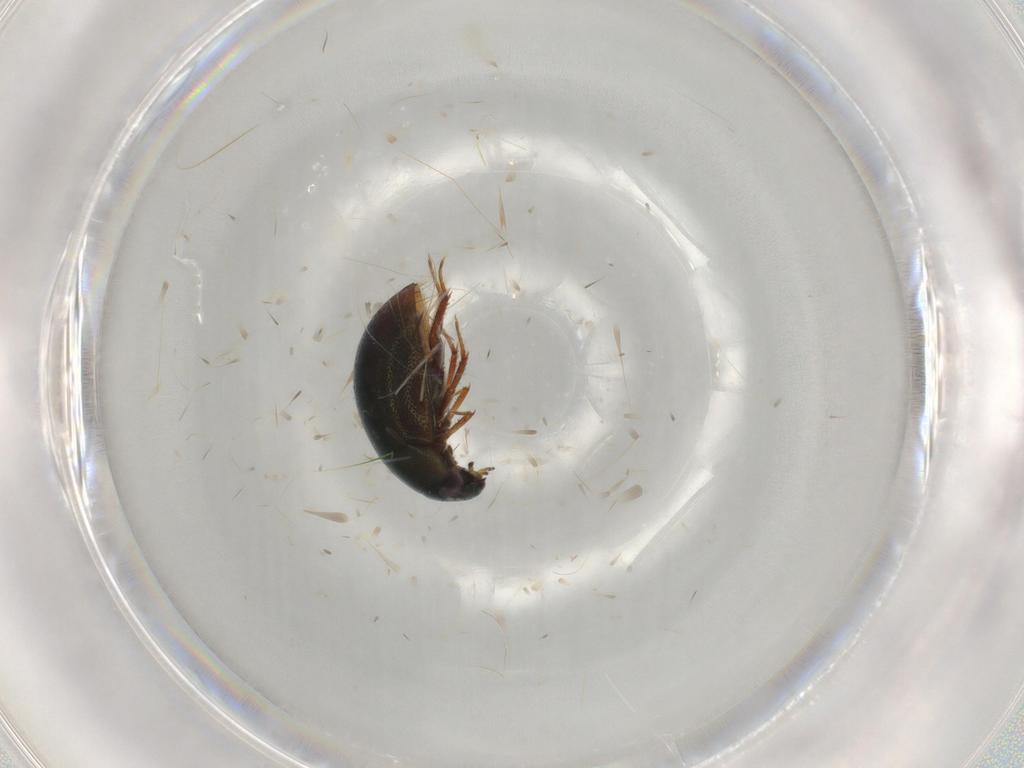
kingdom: Animalia
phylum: Arthropoda
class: Insecta
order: Coleoptera
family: Hydrophilidae
